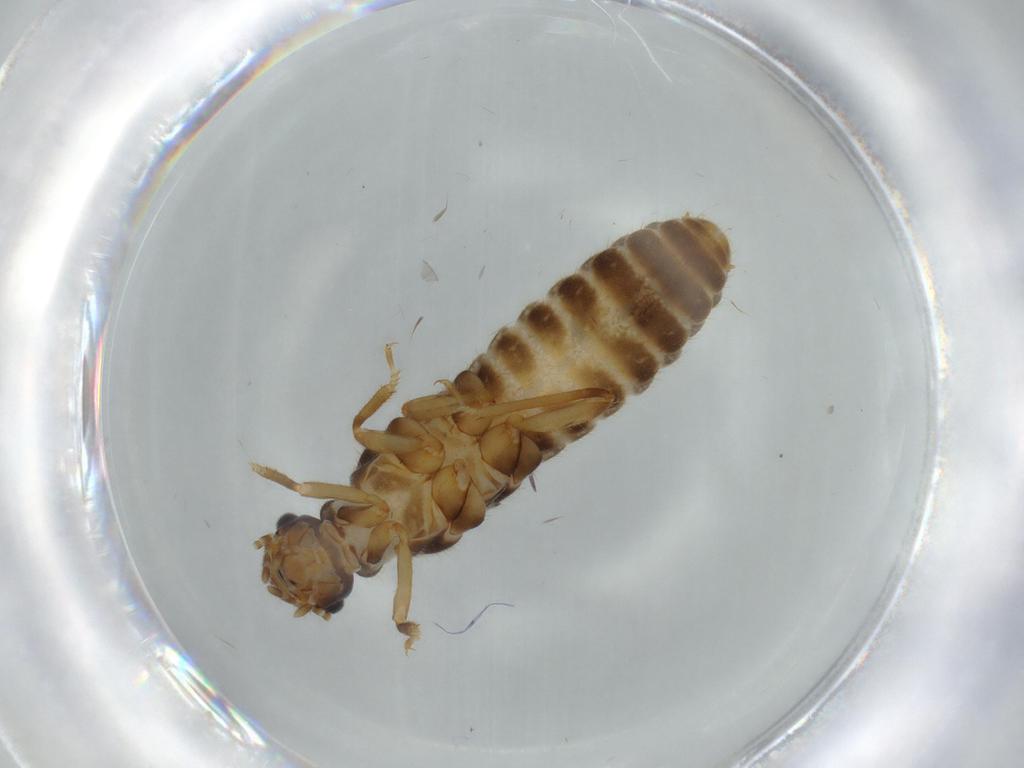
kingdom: Animalia
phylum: Arthropoda
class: Insecta
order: Blattodea
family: Termitidae
